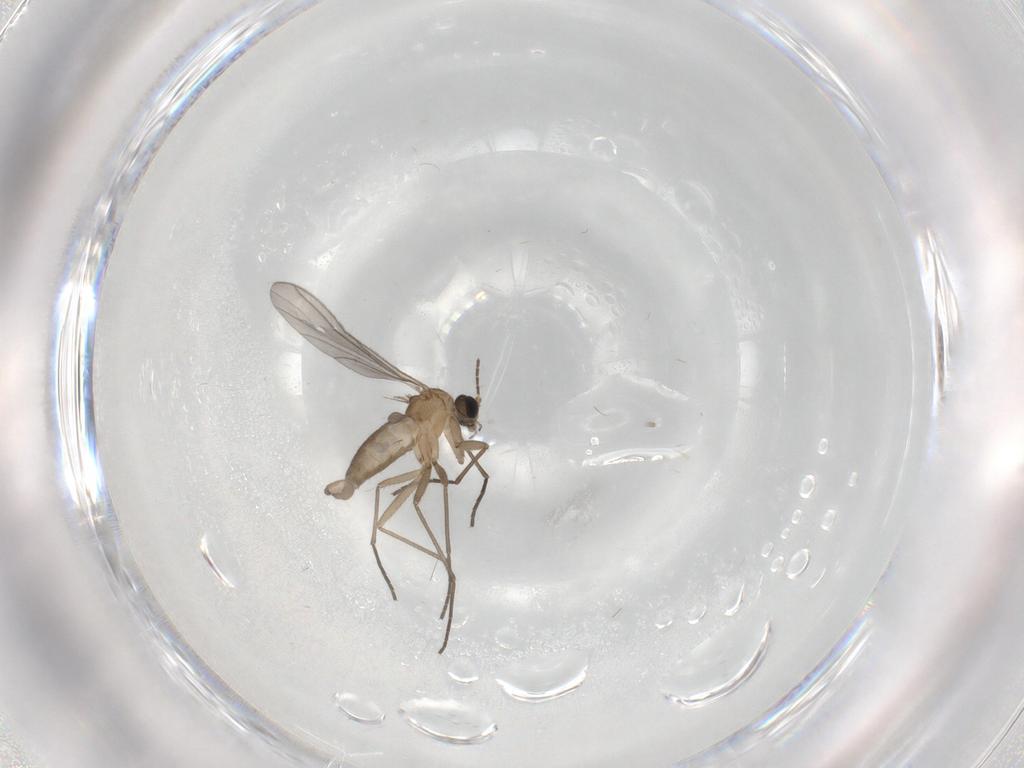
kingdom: Animalia
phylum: Arthropoda
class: Insecta
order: Diptera
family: Sciaridae
